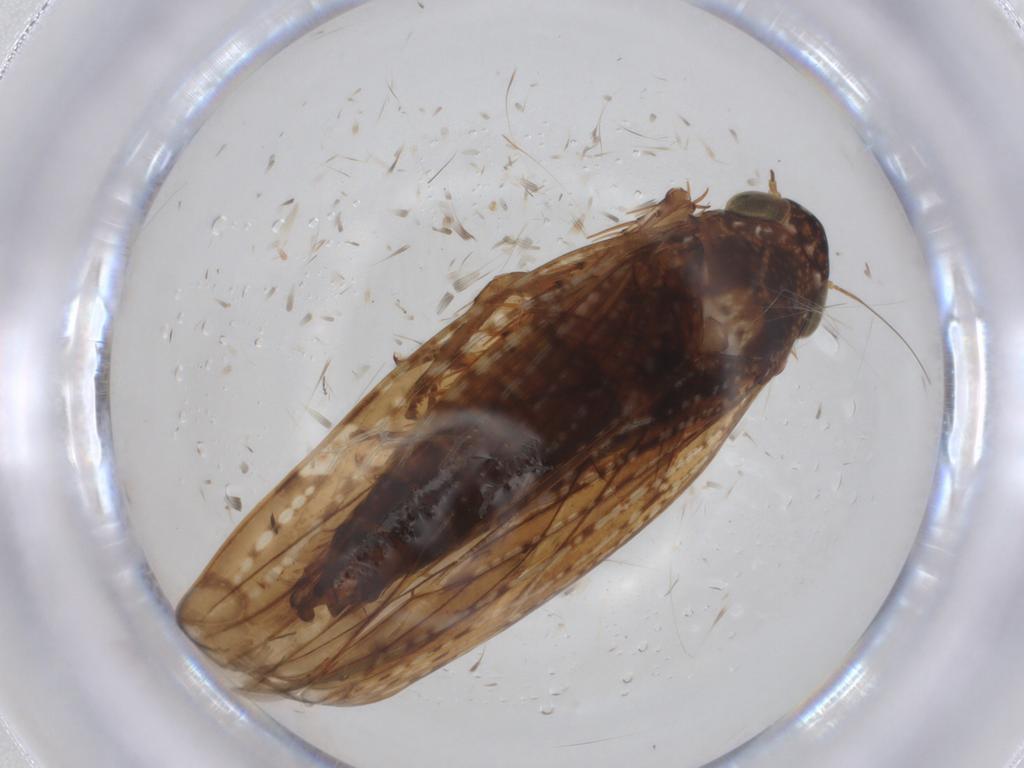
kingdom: Animalia
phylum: Arthropoda
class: Insecta
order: Hemiptera
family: Cicadellidae
